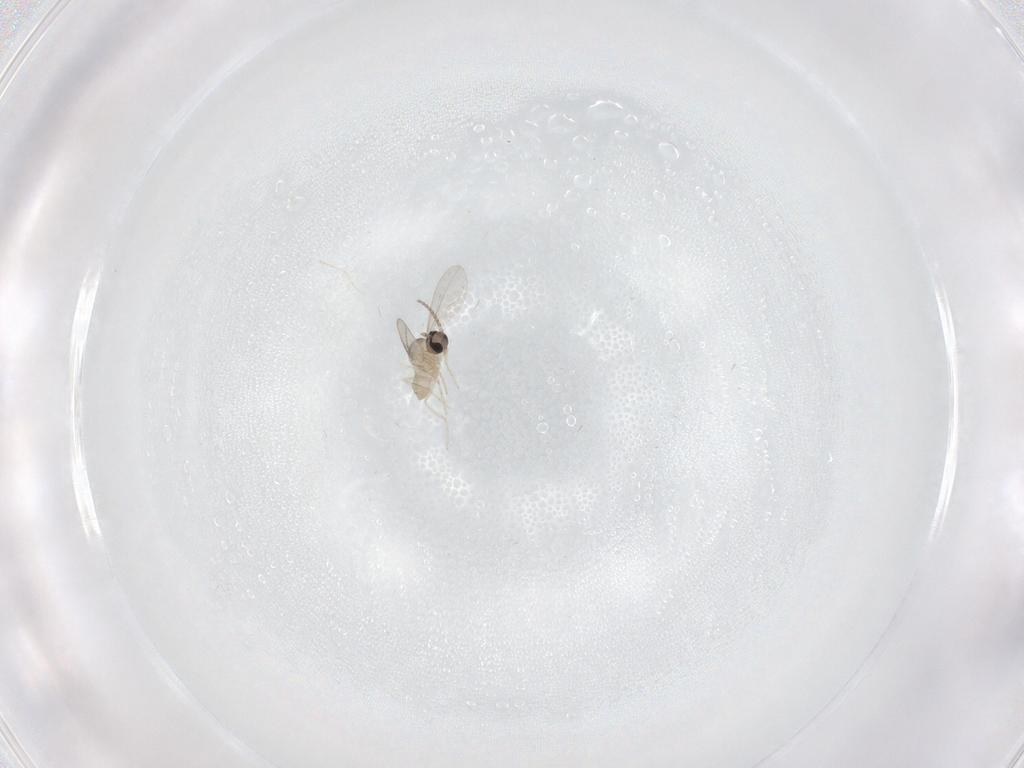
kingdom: Animalia
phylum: Arthropoda
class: Insecta
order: Diptera
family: Cecidomyiidae
